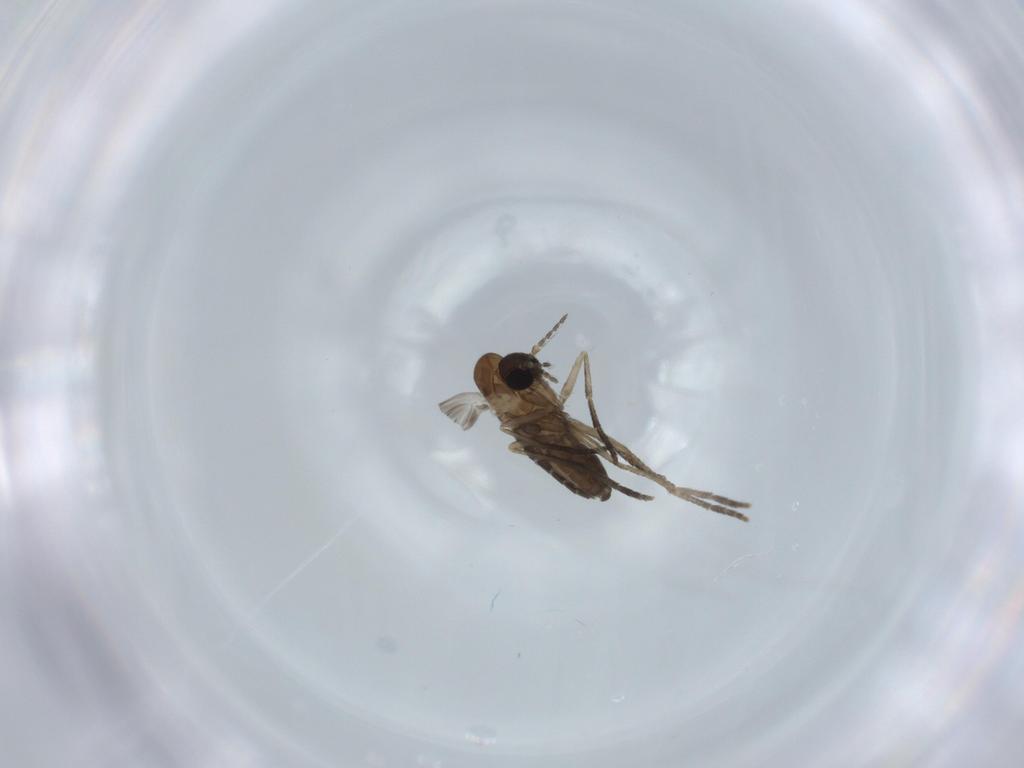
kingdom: Animalia
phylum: Arthropoda
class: Insecta
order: Diptera
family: Psychodidae
